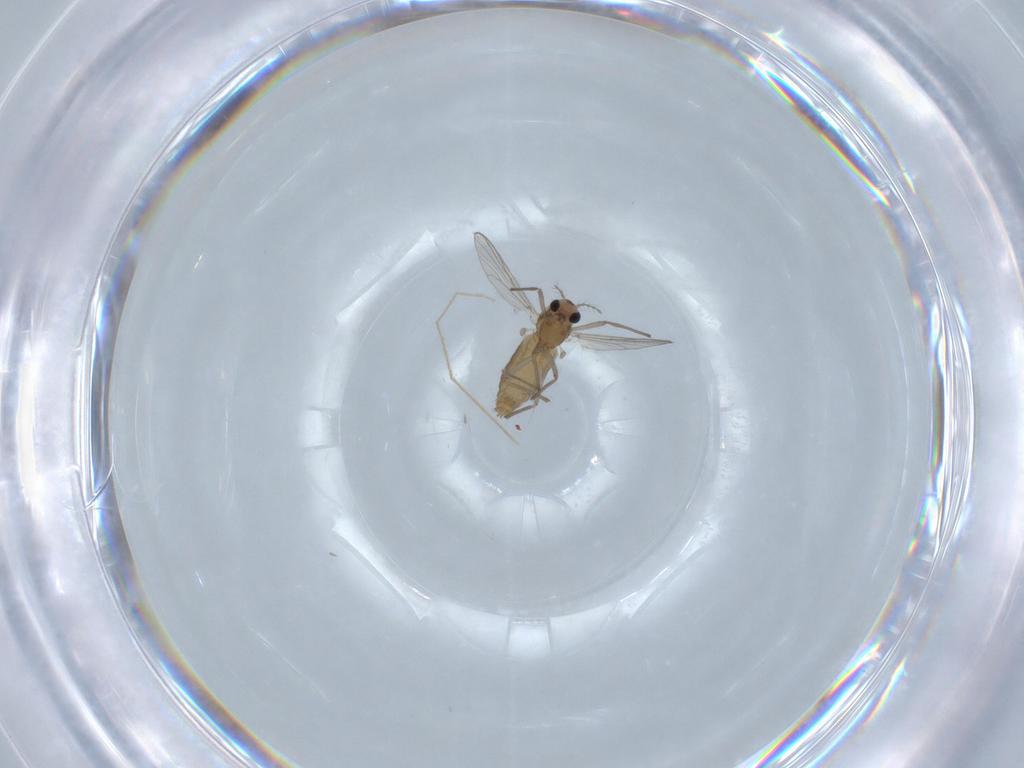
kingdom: Animalia
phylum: Arthropoda
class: Insecta
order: Diptera
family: Chironomidae
